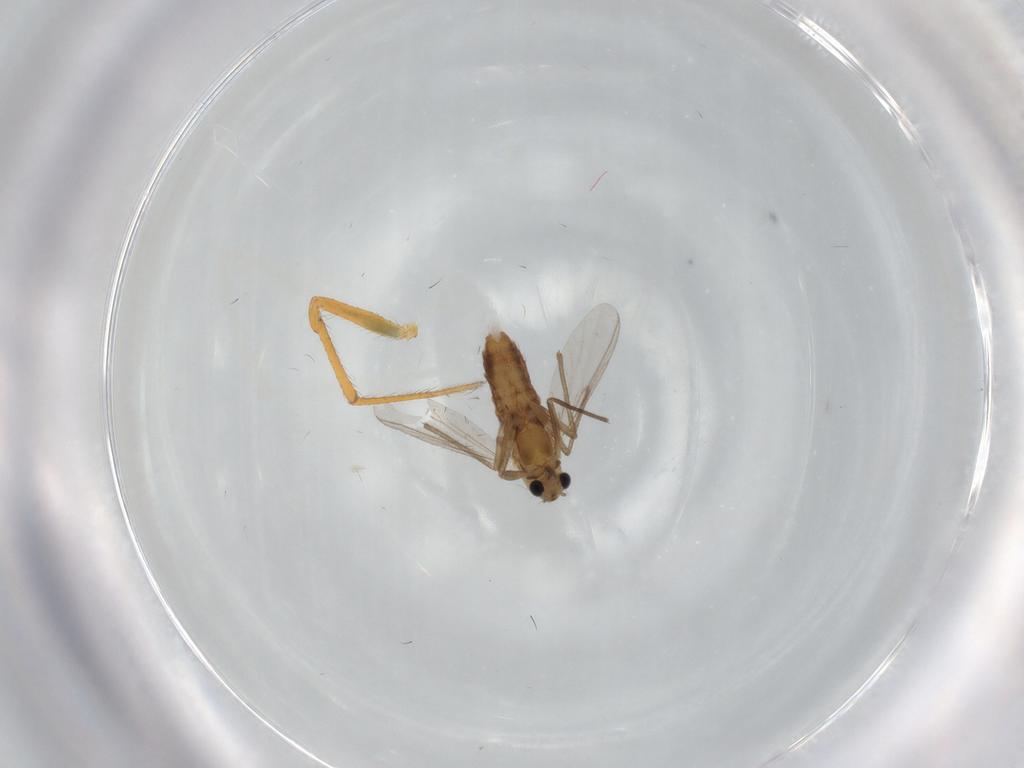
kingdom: Animalia
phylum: Arthropoda
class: Insecta
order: Diptera
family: Chironomidae
